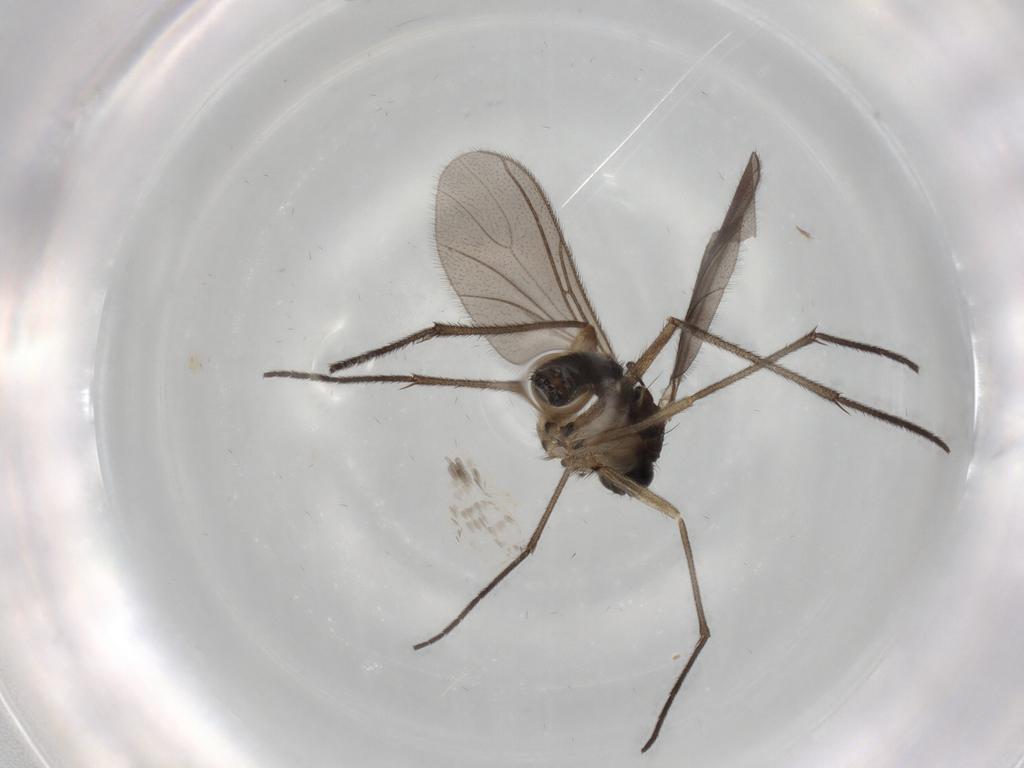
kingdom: Animalia
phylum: Arthropoda
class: Insecta
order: Diptera
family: Sciaridae
